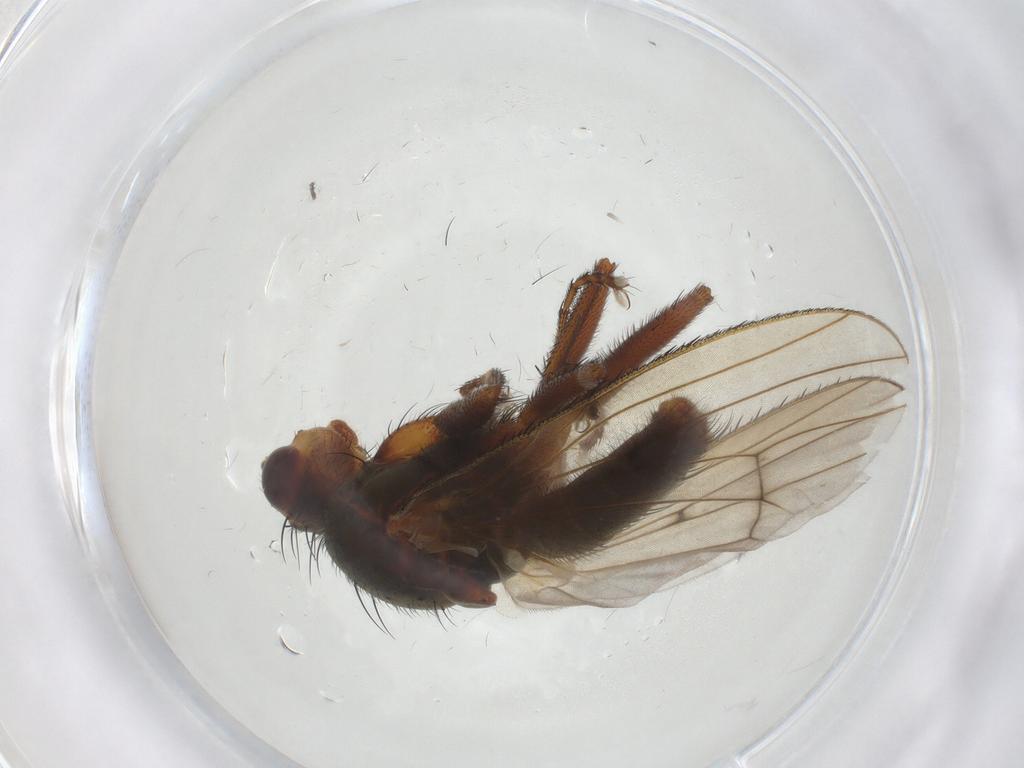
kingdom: Animalia
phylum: Arthropoda
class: Insecta
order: Diptera
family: Heleomyzidae
